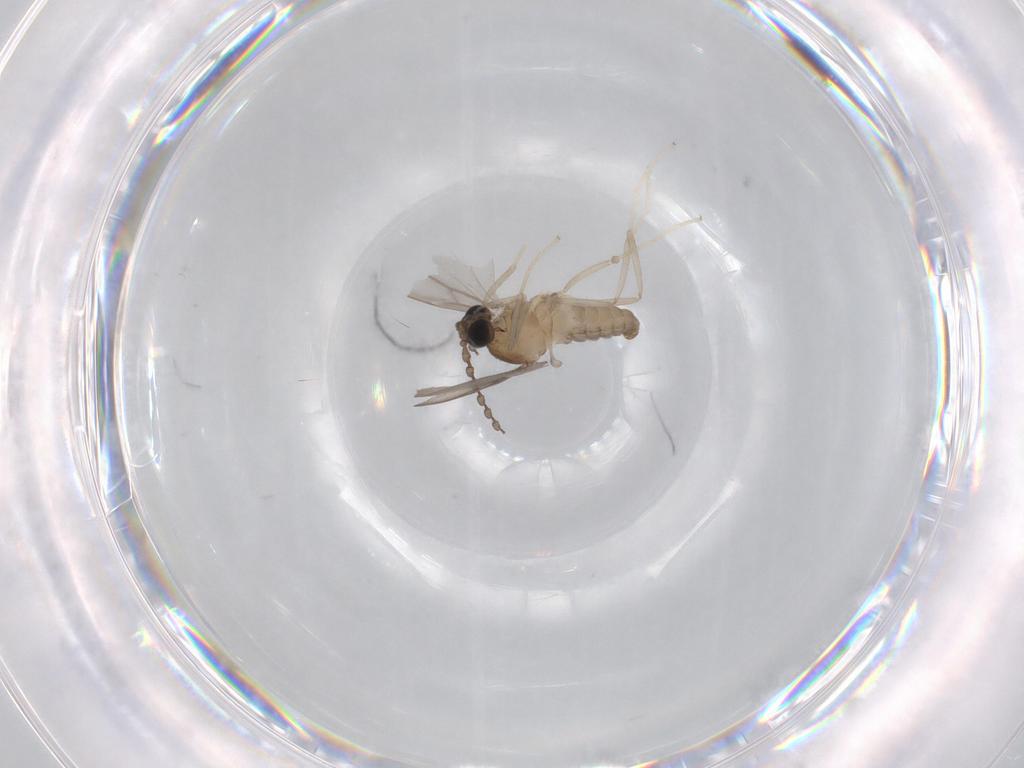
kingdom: Animalia
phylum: Arthropoda
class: Insecta
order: Diptera
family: Cecidomyiidae
